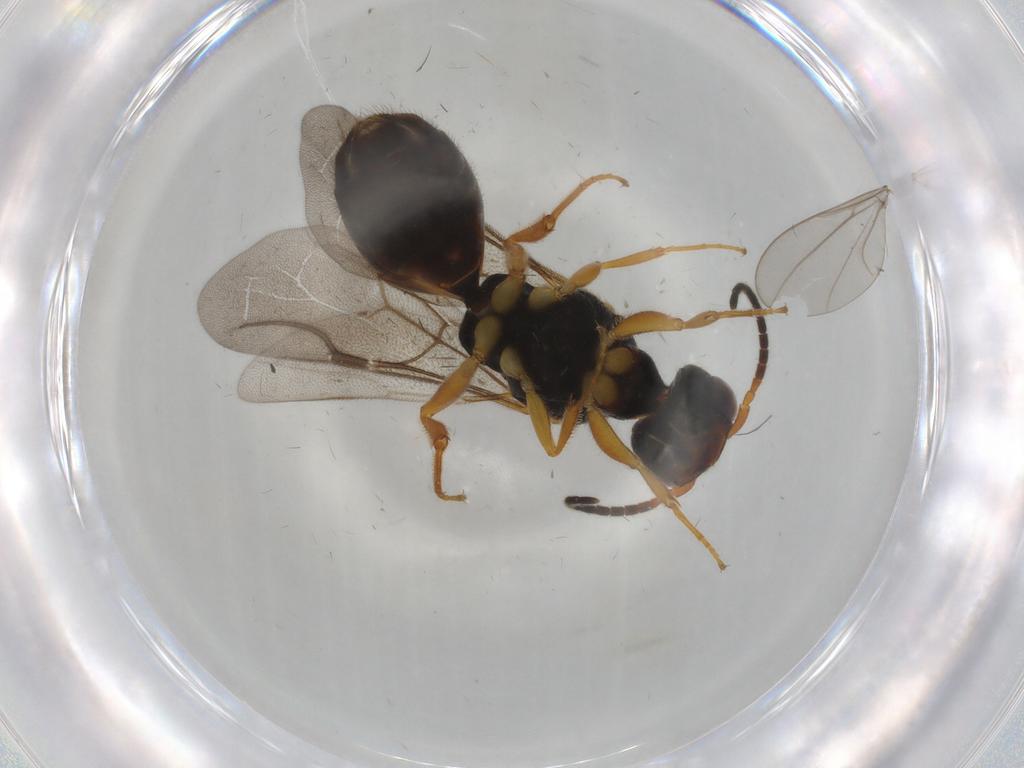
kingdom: Animalia
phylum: Arthropoda
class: Insecta
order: Hymenoptera
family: Bethylidae
